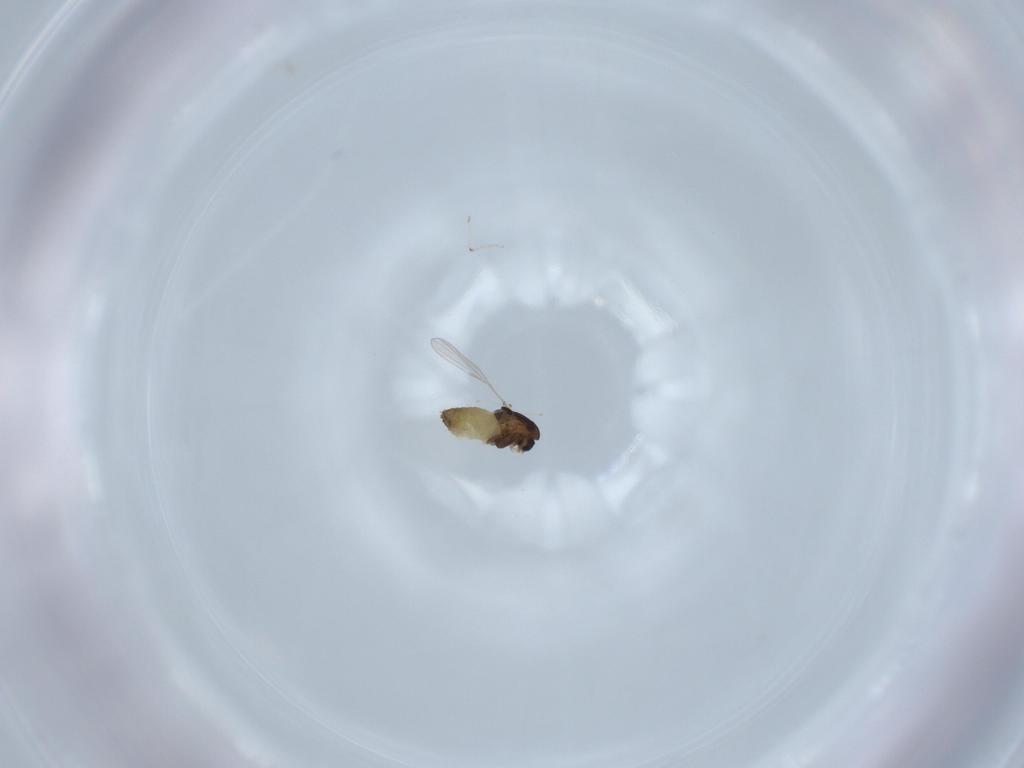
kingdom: Animalia
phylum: Arthropoda
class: Insecta
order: Diptera
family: Chironomidae
